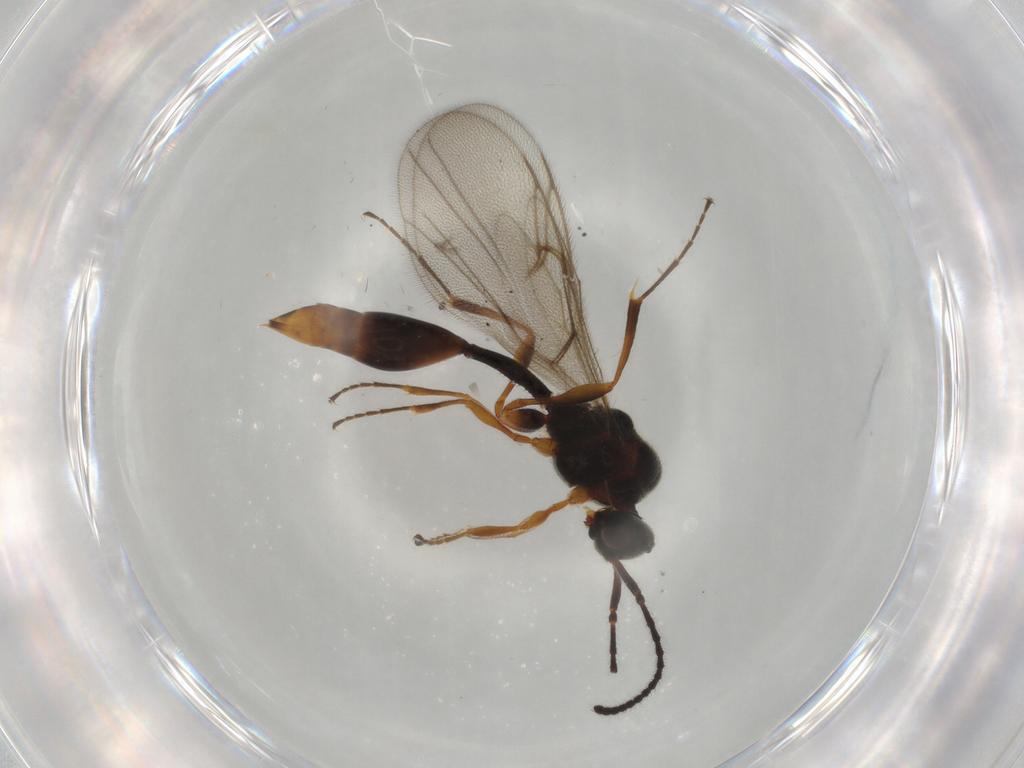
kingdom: Animalia
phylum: Arthropoda
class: Insecta
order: Hymenoptera
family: Diapriidae
